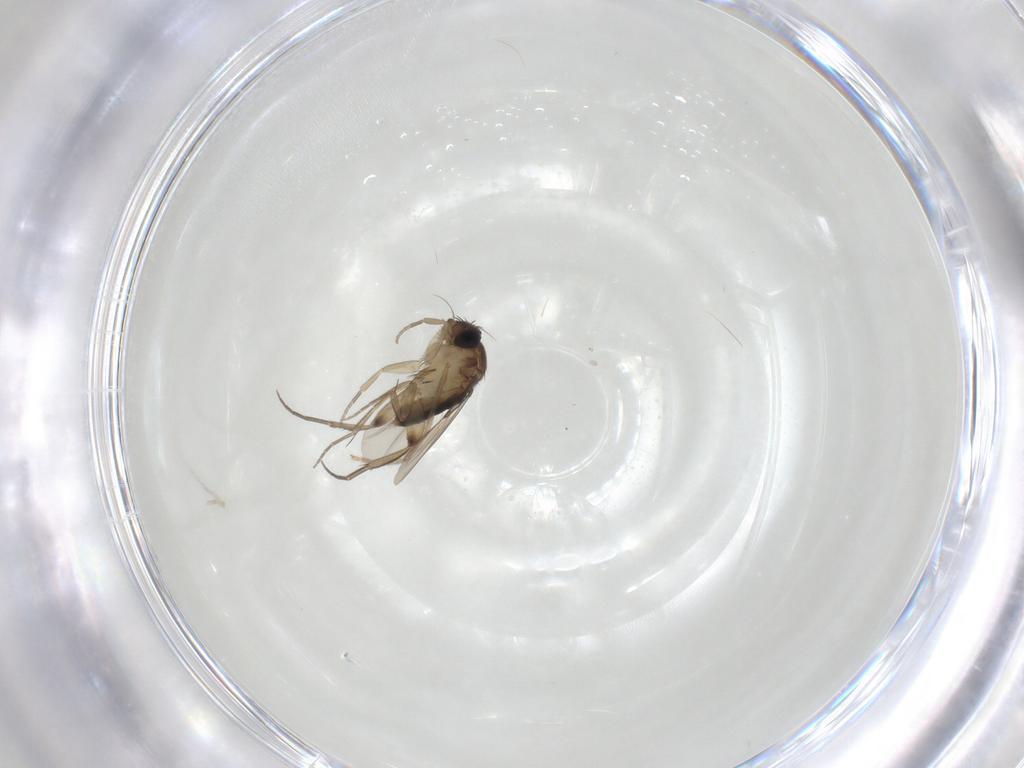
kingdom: Animalia
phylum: Arthropoda
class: Insecta
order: Diptera
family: Phoridae
